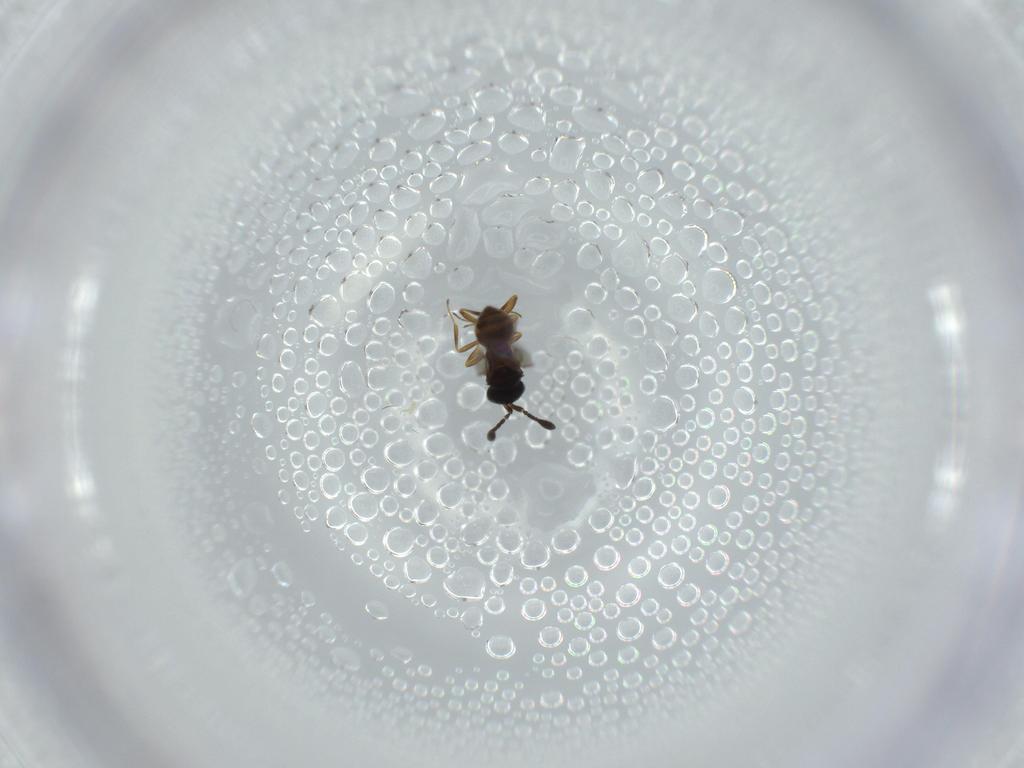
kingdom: Animalia
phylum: Arthropoda
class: Insecta
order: Hymenoptera
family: Scelionidae
